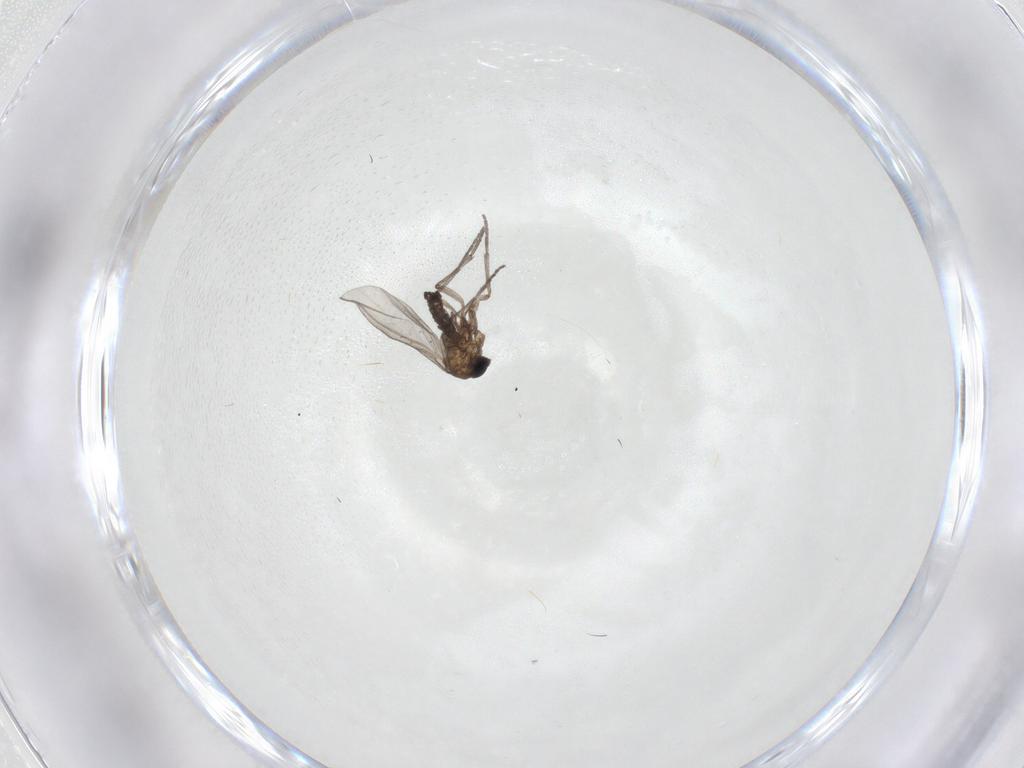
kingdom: Animalia
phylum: Arthropoda
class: Insecta
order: Diptera
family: Sciaridae
